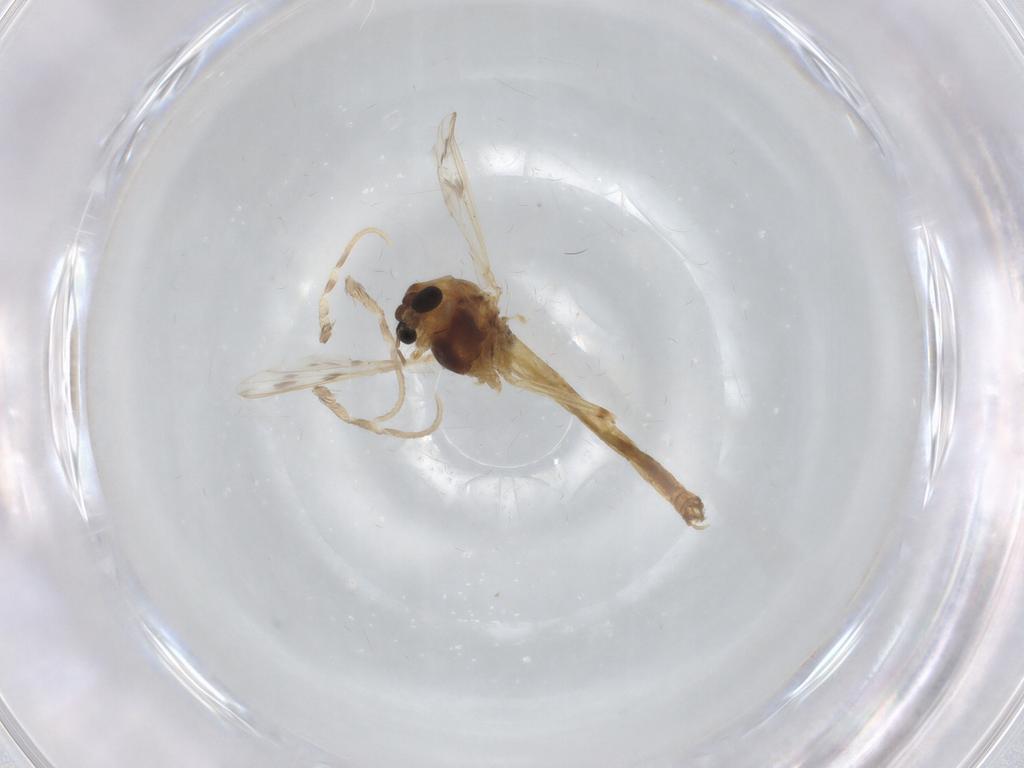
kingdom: Animalia
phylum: Arthropoda
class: Insecta
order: Diptera
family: Chironomidae
